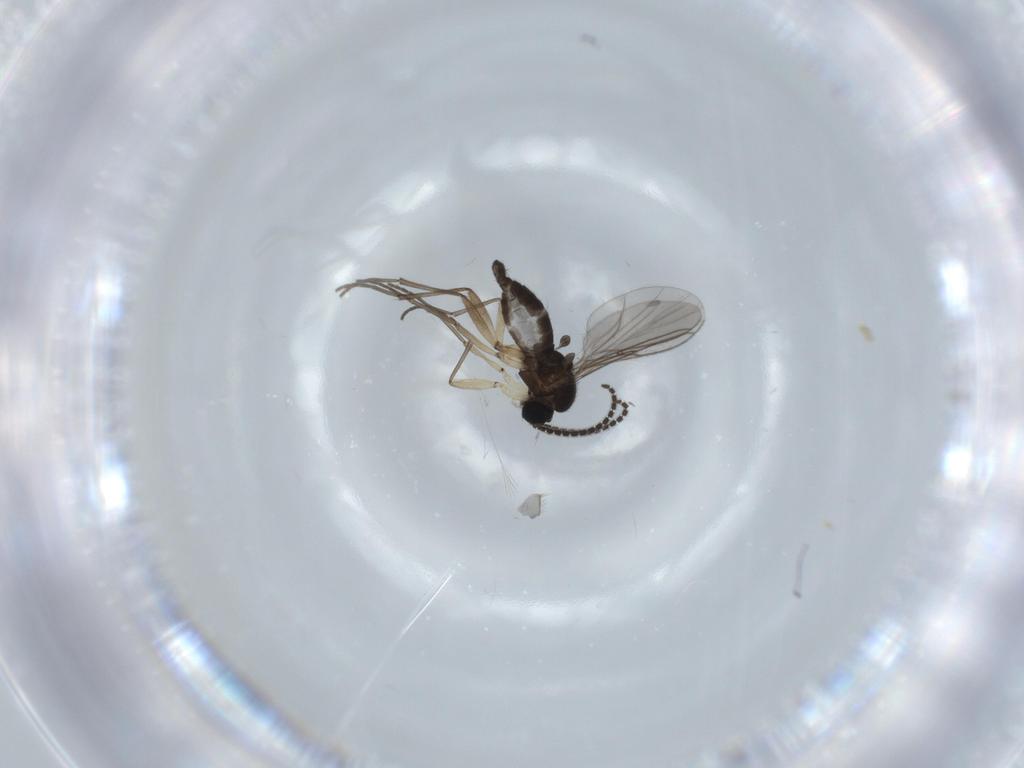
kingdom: Animalia
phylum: Arthropoda
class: Insecta
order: Diptera
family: Sciaridae
